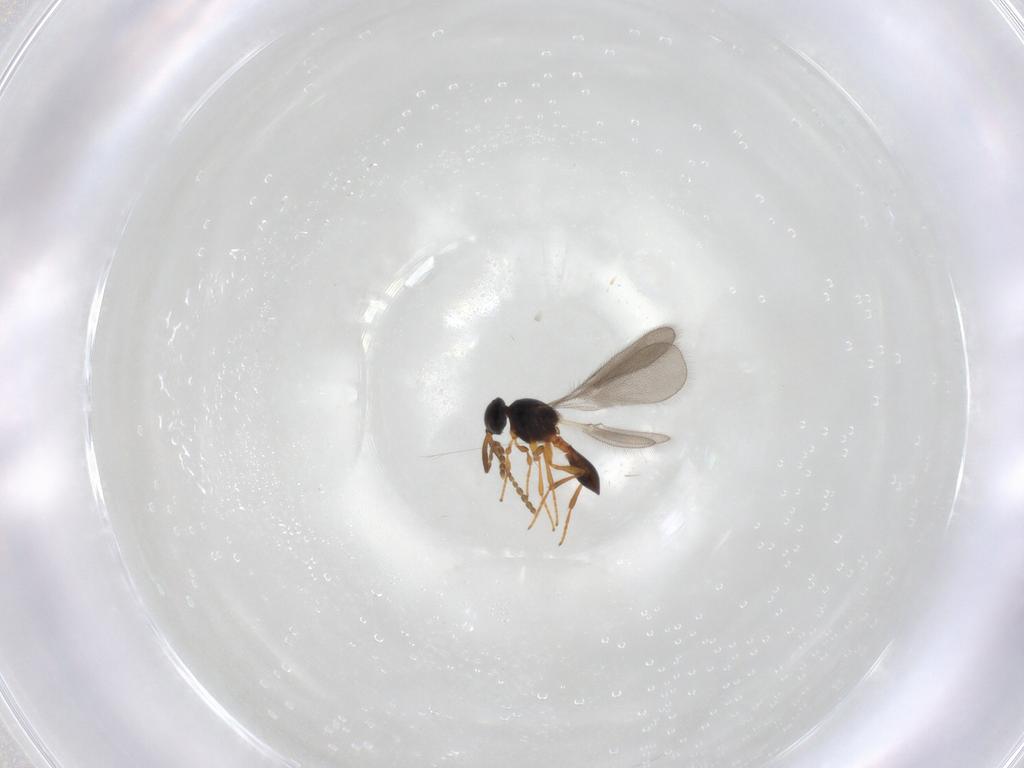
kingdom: Animalia
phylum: Arthropoda
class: Insecta
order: Hymenoptera
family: Platygastridae
